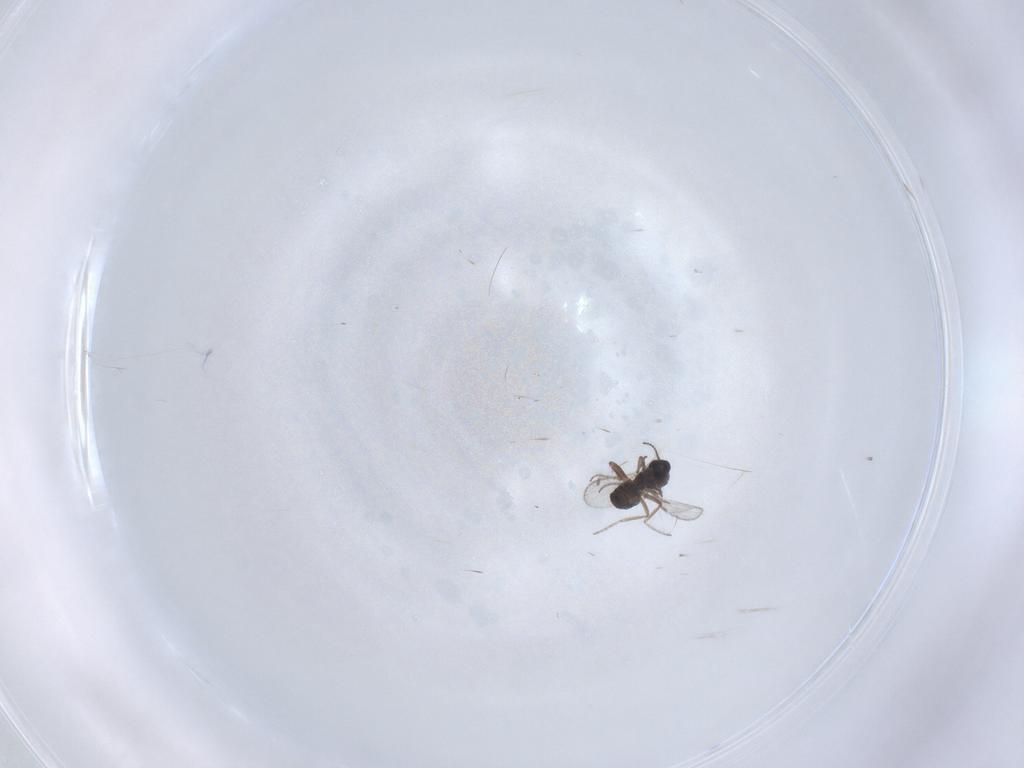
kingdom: Animalia
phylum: Arthropoda
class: Insecta
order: Diptera
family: Ceratopogonidae
